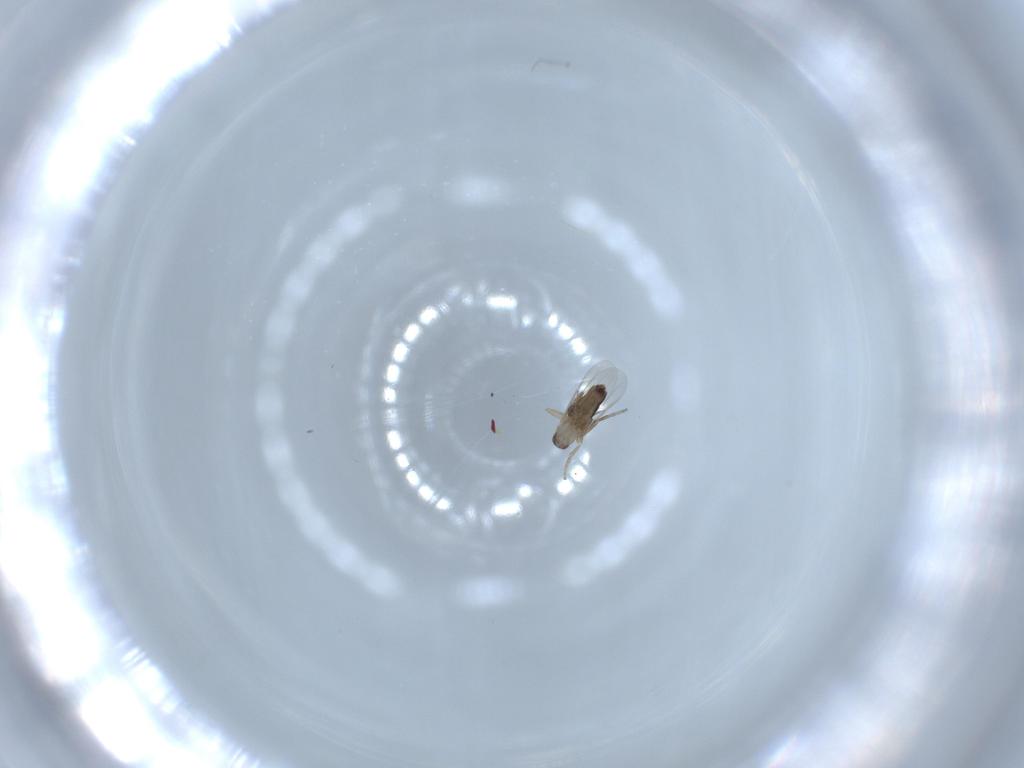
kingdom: Animalia
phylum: Arthropoda
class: Insecta
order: Diptera
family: Phoridae
